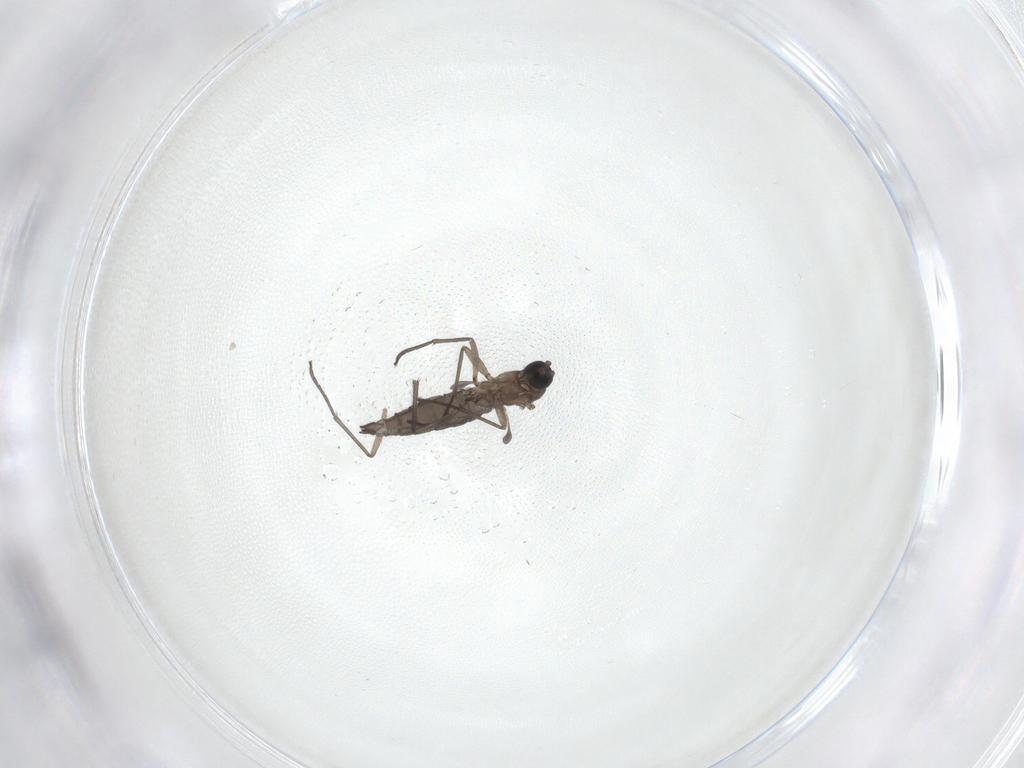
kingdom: Animalia
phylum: Arthropoda
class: Insecta
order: Diptera
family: Sciaridae
